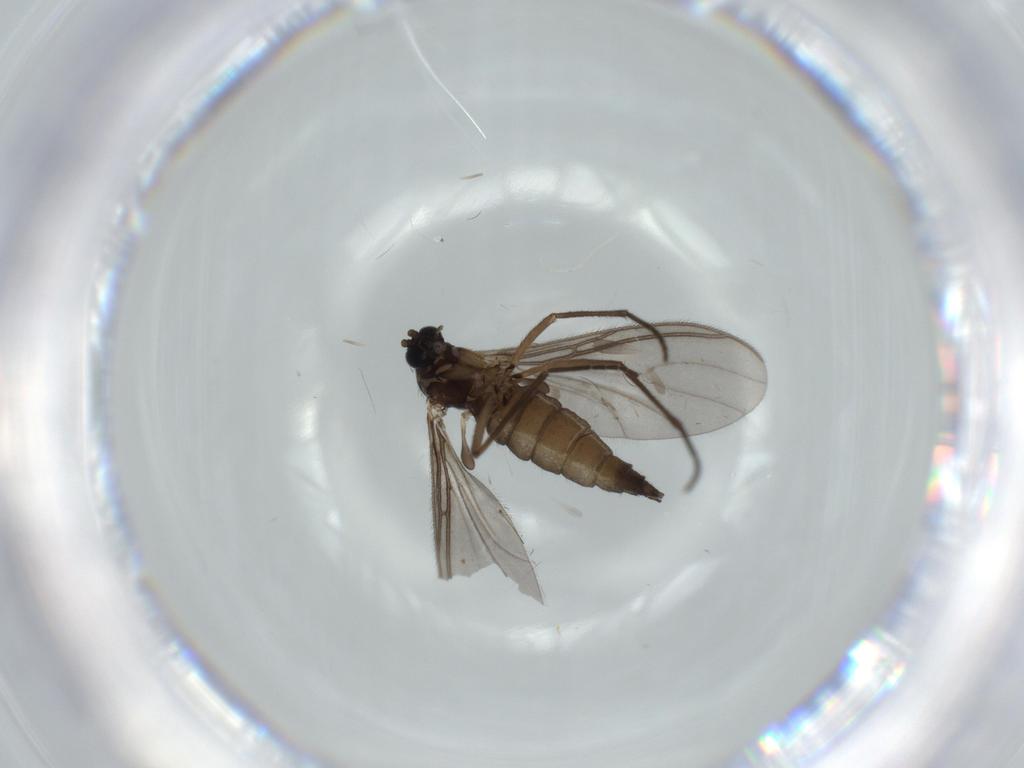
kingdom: Animalia
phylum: Arthropoda
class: Insecta
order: Diptera
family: Sciaridae
